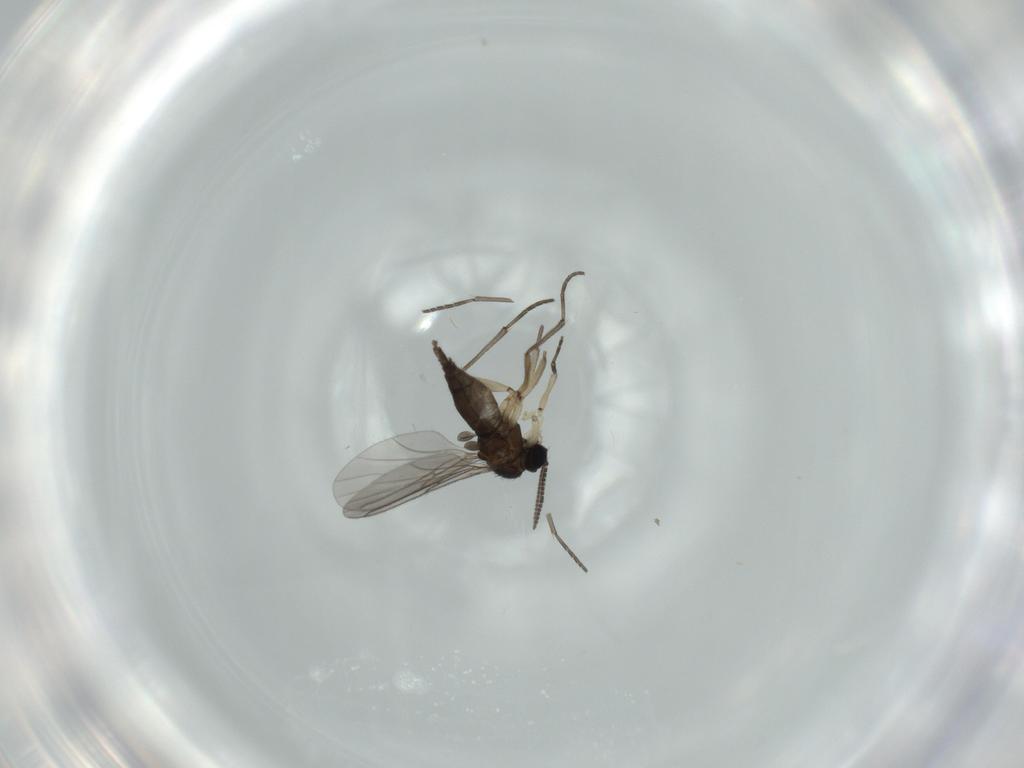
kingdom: Animalia
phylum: Arthropoda
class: Insecta
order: Diptera
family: Sciaridae
